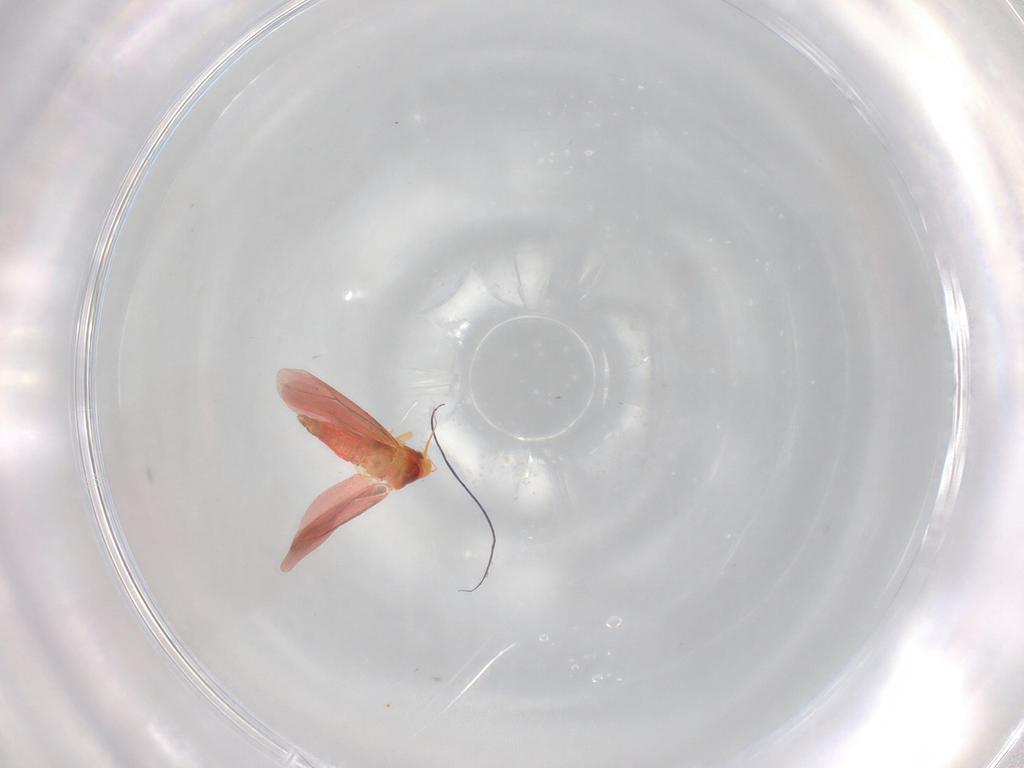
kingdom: Animalia
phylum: Arthropoda
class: Insecta
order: Hemiptera
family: Aleyrodidae
